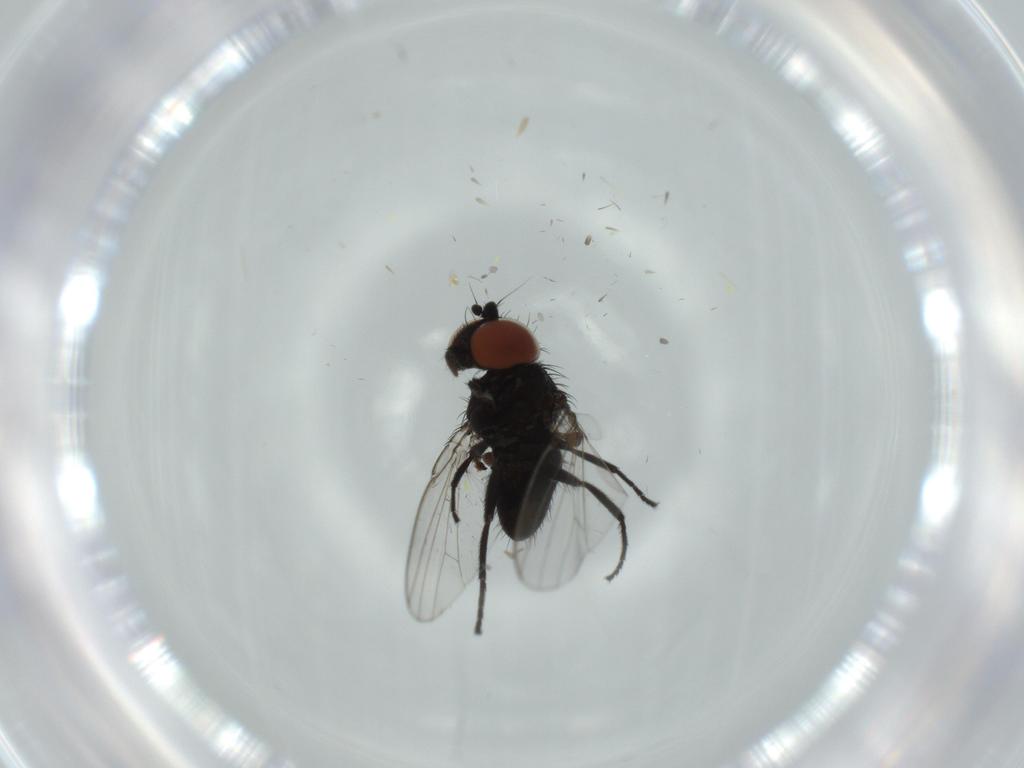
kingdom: Animalia
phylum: Arthropoda
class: Insecta
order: Diptera
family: Milichiidae
